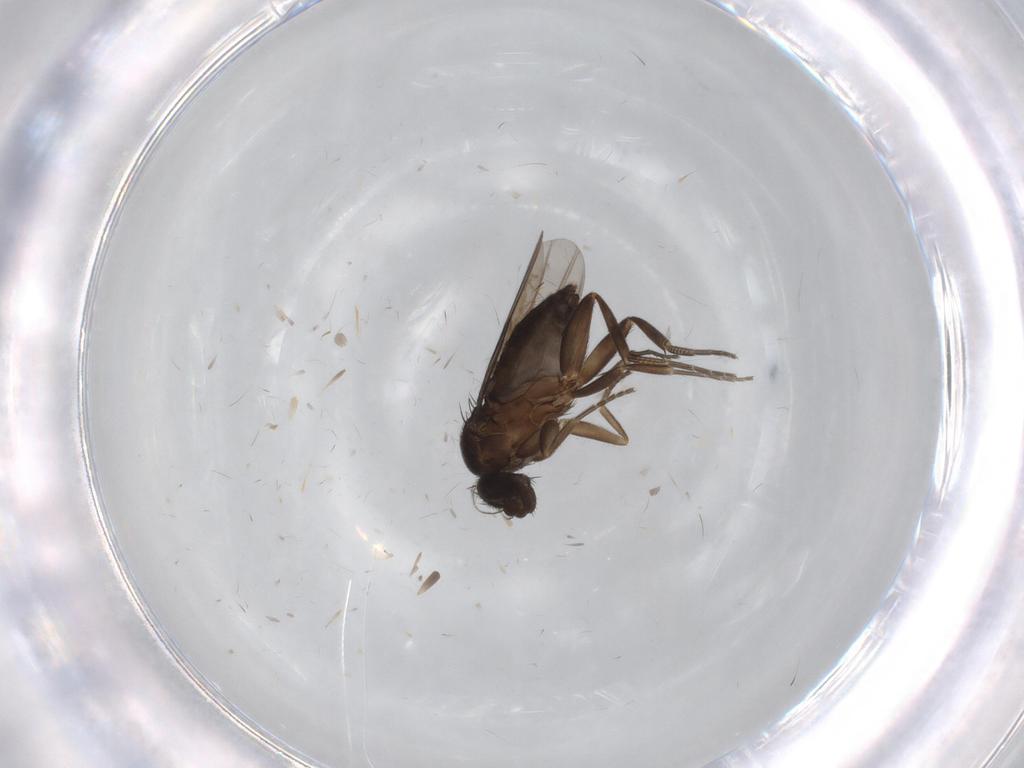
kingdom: Animalia
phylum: Arthropoda
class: Insecta
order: Diptera
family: Phoridae
